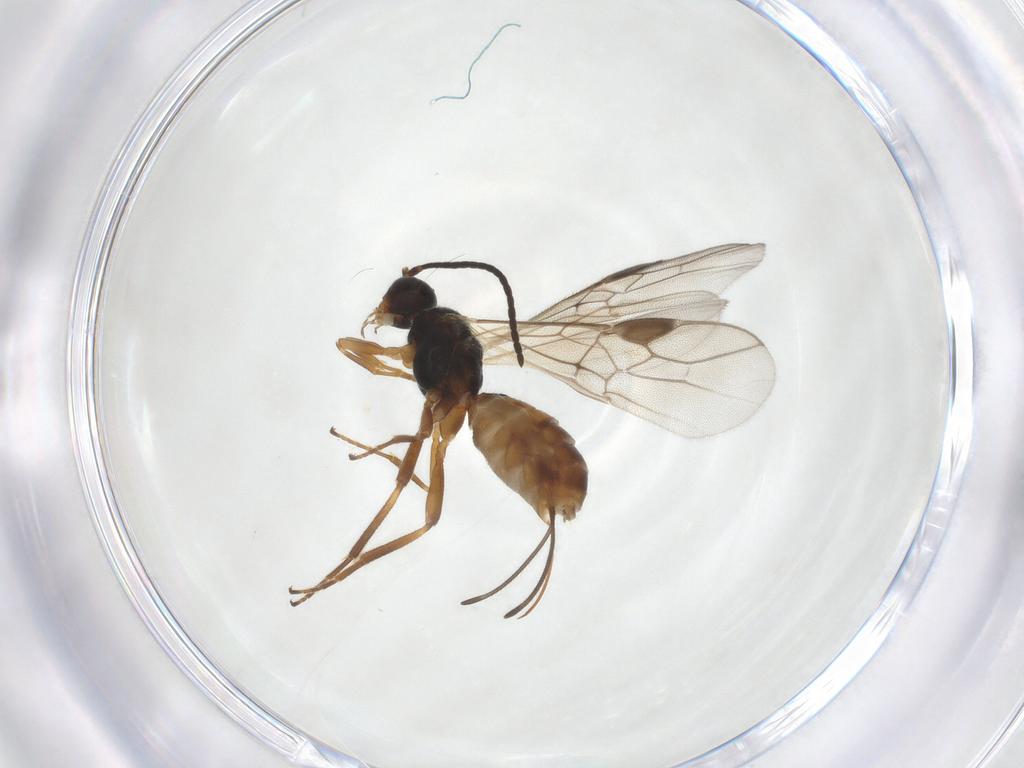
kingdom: Animalia
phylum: Arthropoda
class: Insecta
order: Hymenoptera
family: Braconidae
